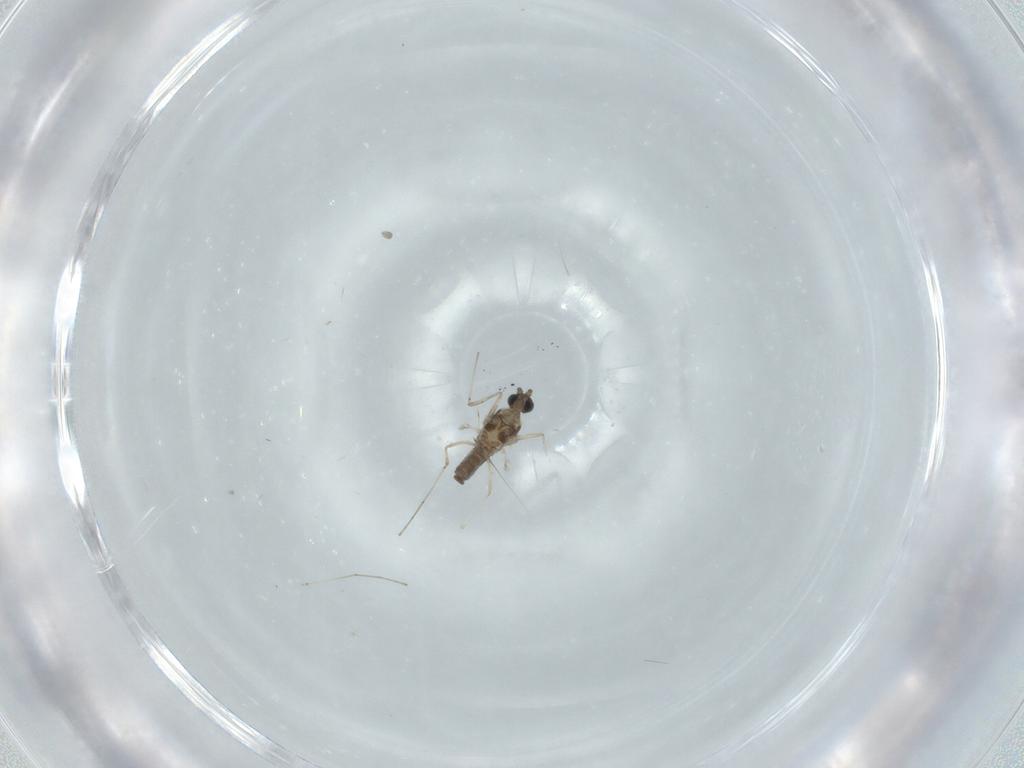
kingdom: Animalia
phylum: Arthropoda
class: Insecta
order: Diptera
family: Cecidomyiidae
